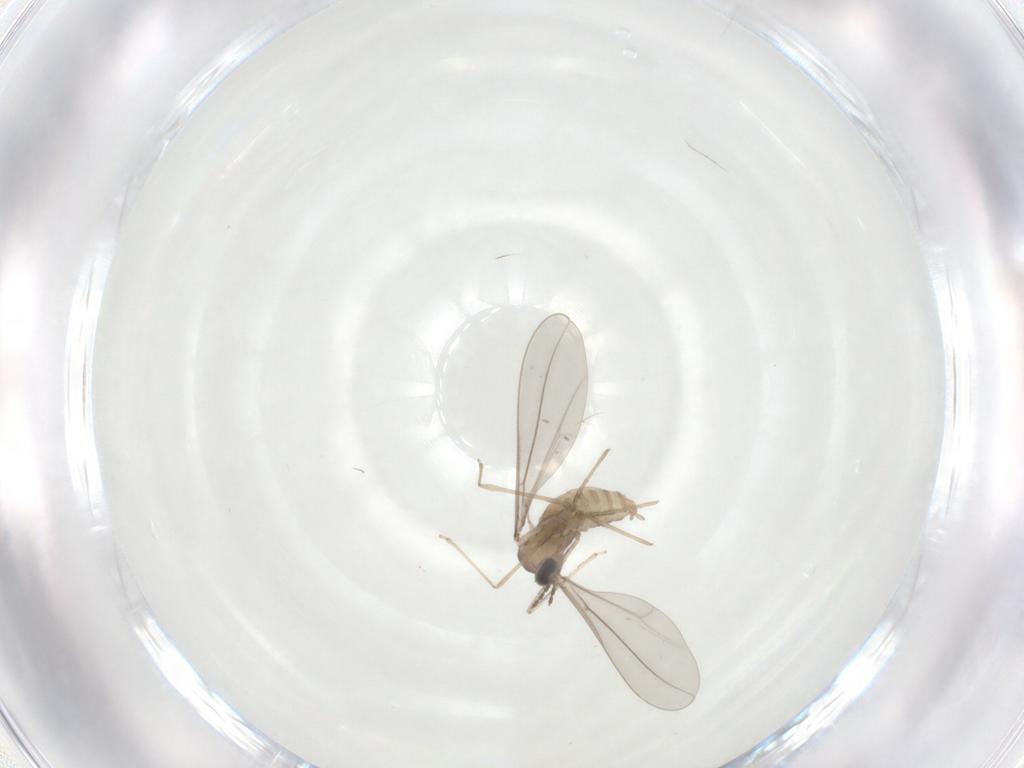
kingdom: Animalia
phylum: Arthropoda
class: Insecta
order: Diptera
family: Cecidomyiidae
